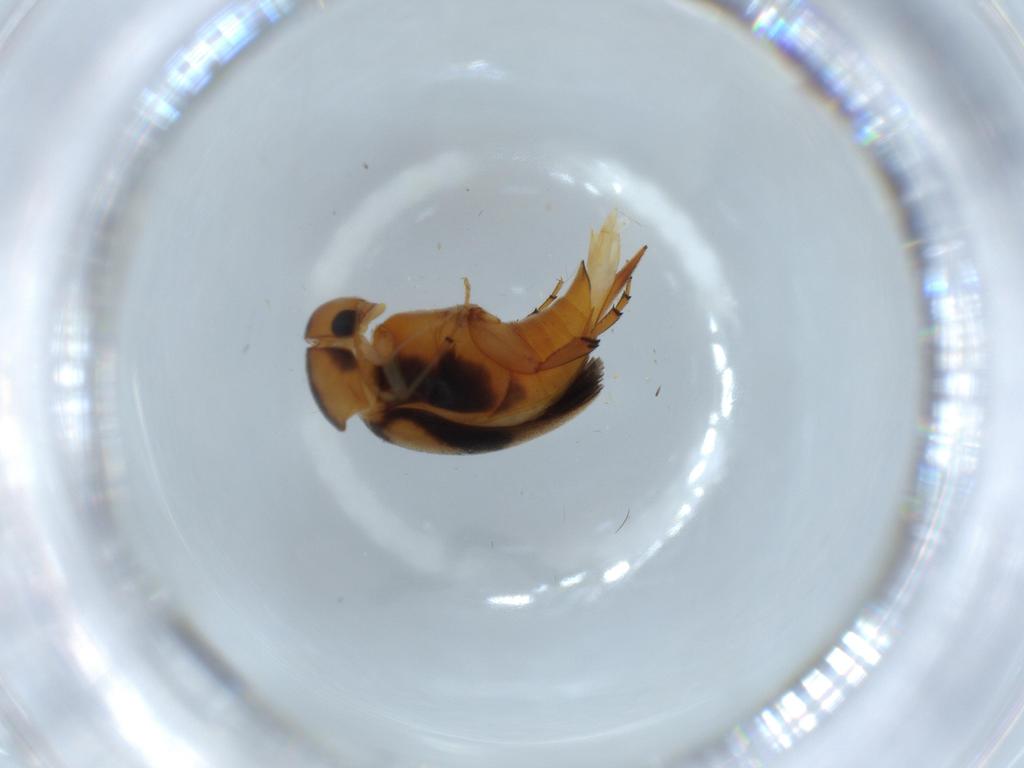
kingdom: Animalia
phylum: Arthropoda
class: Insecta
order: Coleoptera
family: Mordellidae
